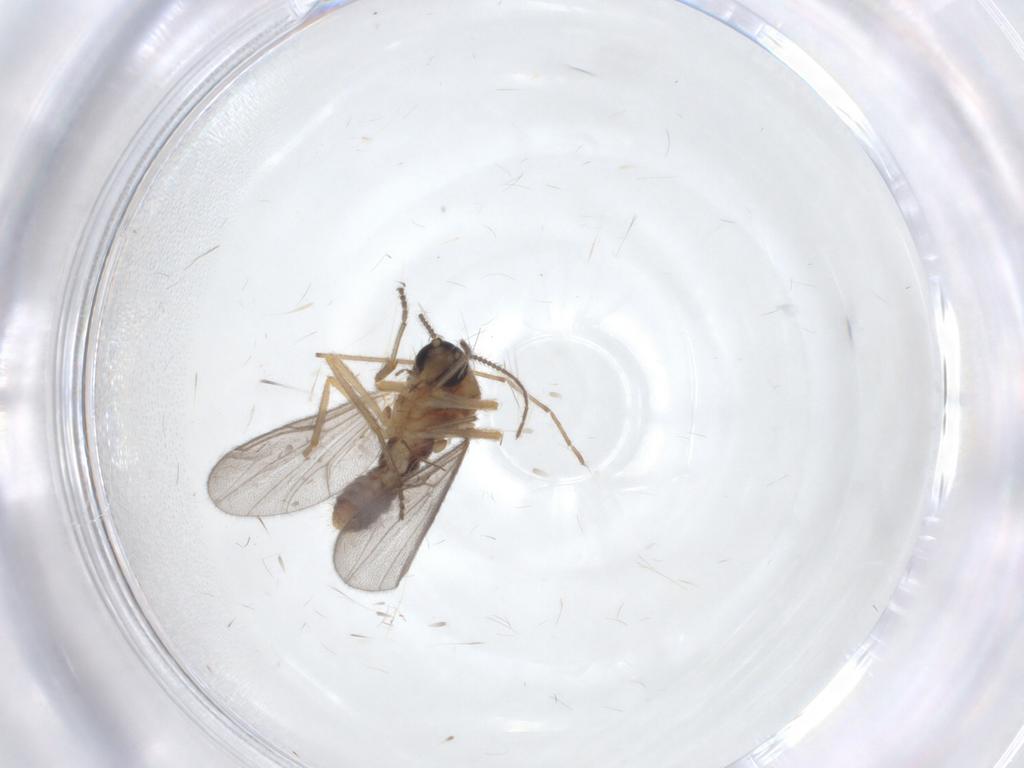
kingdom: Animalia
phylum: Arthropoda
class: Insecta
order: Diptera
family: Ceratopogonidae
